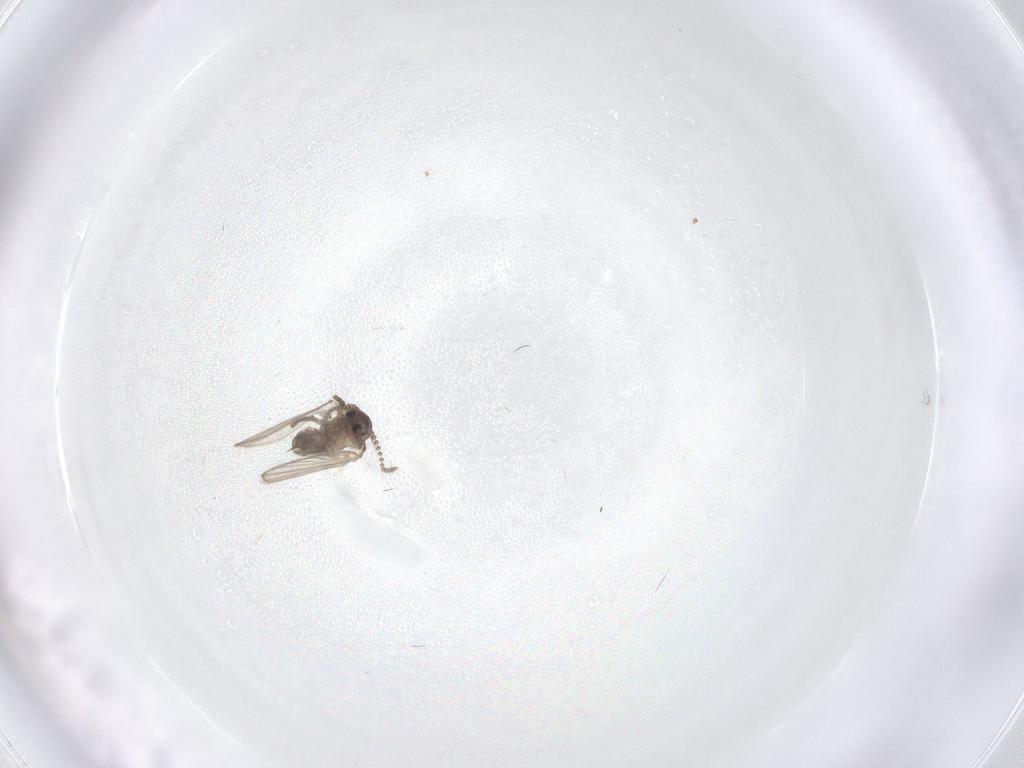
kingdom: Animalia
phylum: Arthropoda
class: Insecta
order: Diptera
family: Psychodidae
